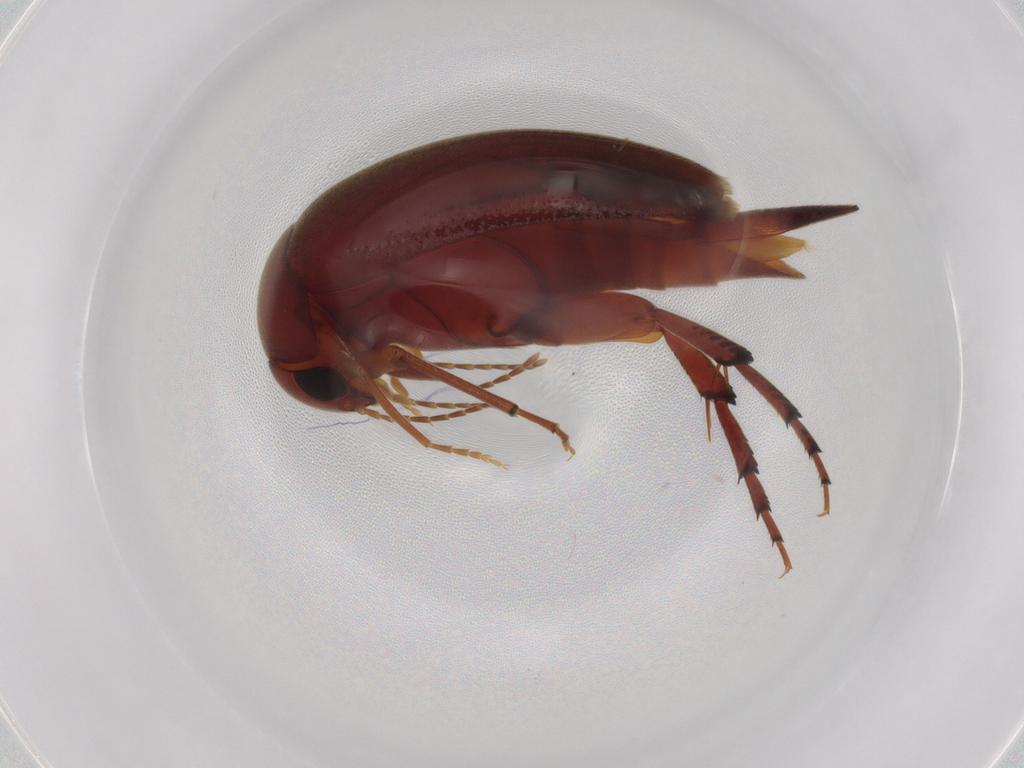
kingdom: Animalia
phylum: Arthropoda
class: Insecta
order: Coleoptera
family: Mordellidae
